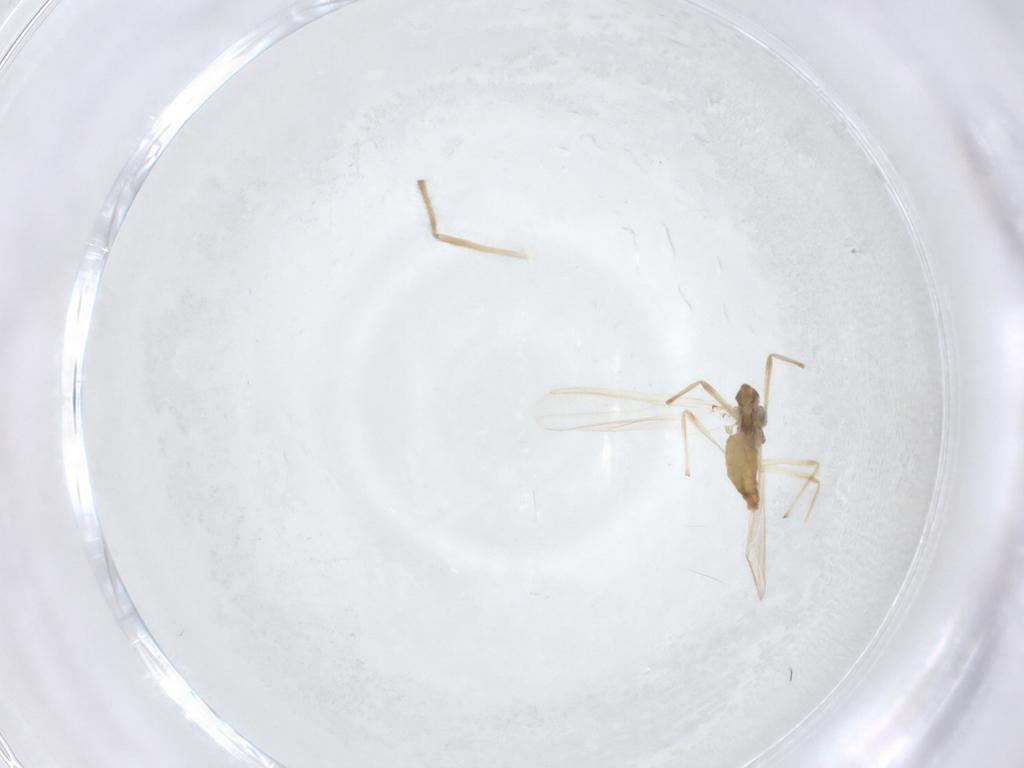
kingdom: Animalia
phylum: Arthropoda
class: Insecta
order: Diptera
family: Chironomidae
